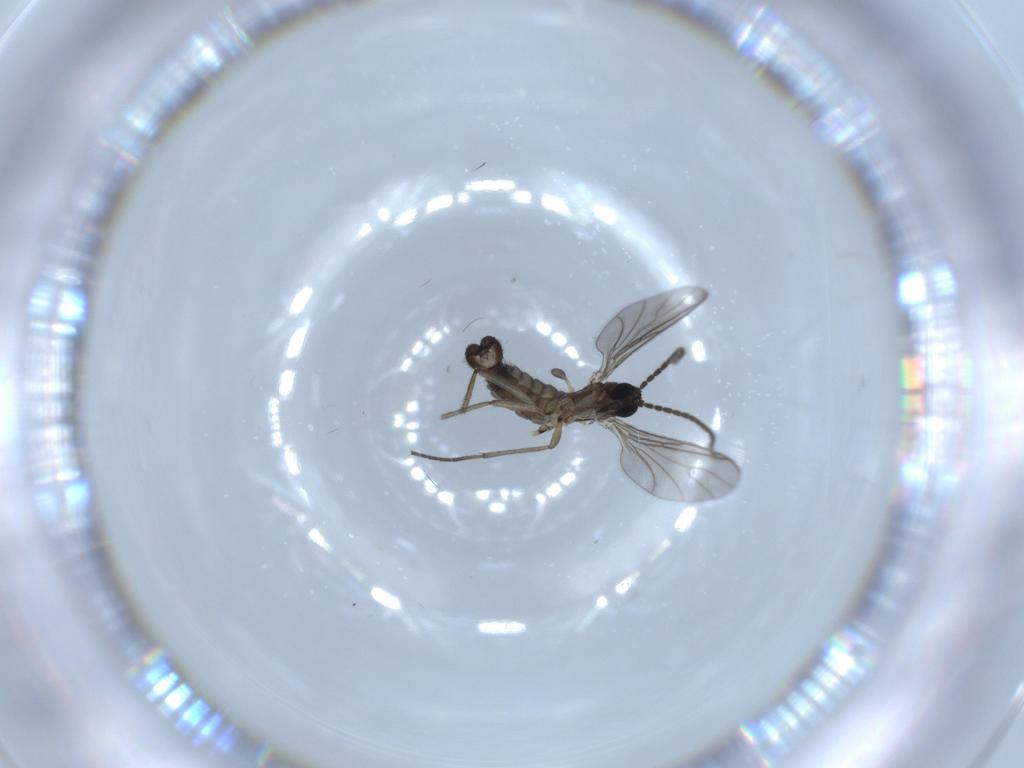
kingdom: Animalia
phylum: Arthropoda
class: Insecta
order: Diptera
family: Sciaridae
